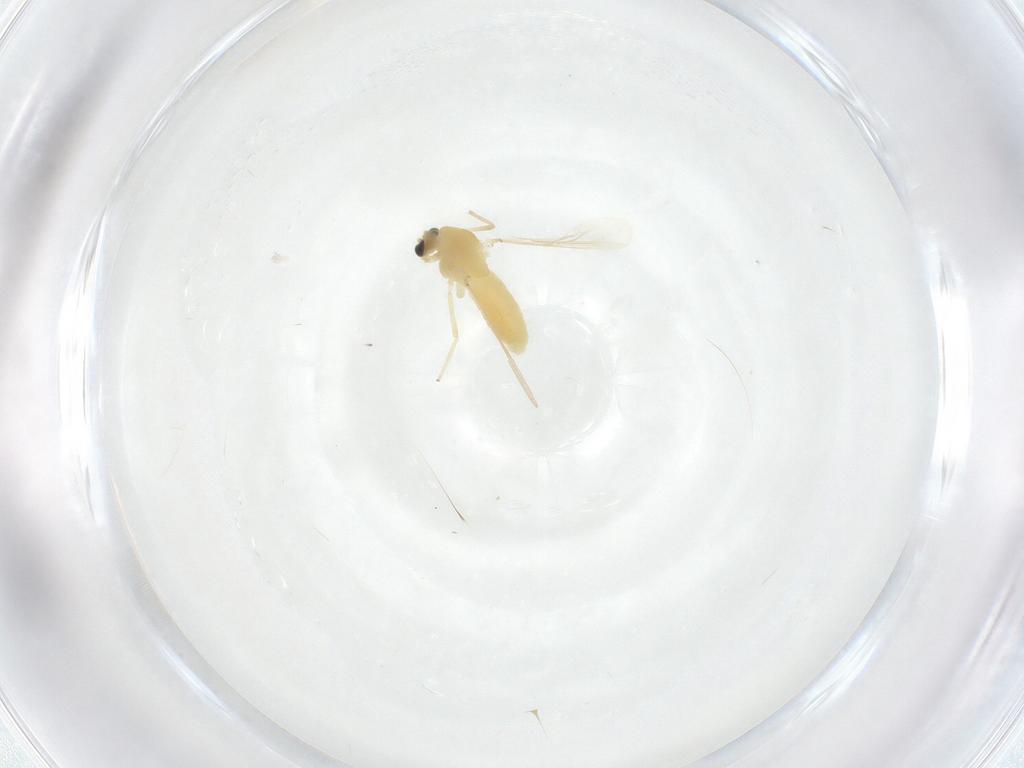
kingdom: Animalia
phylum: Arthropoda
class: Insecta
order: Diptera
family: Chironomidae
